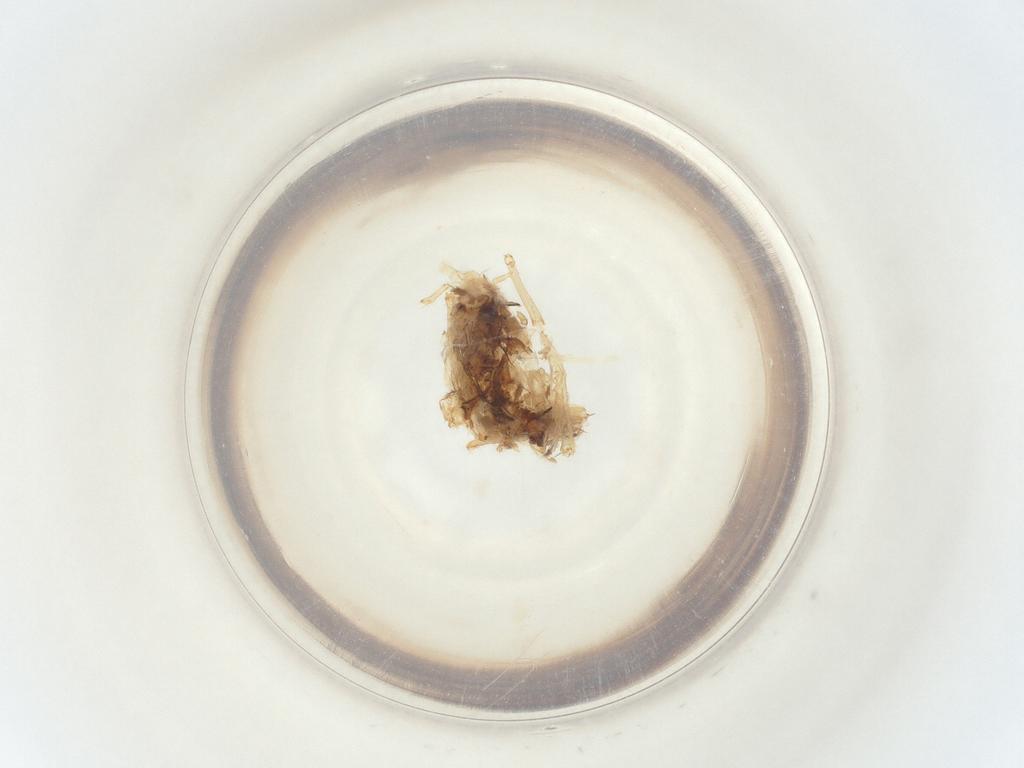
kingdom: Animalia
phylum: Arthropoda
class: Insecta
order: Diptera
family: Chironomidae
